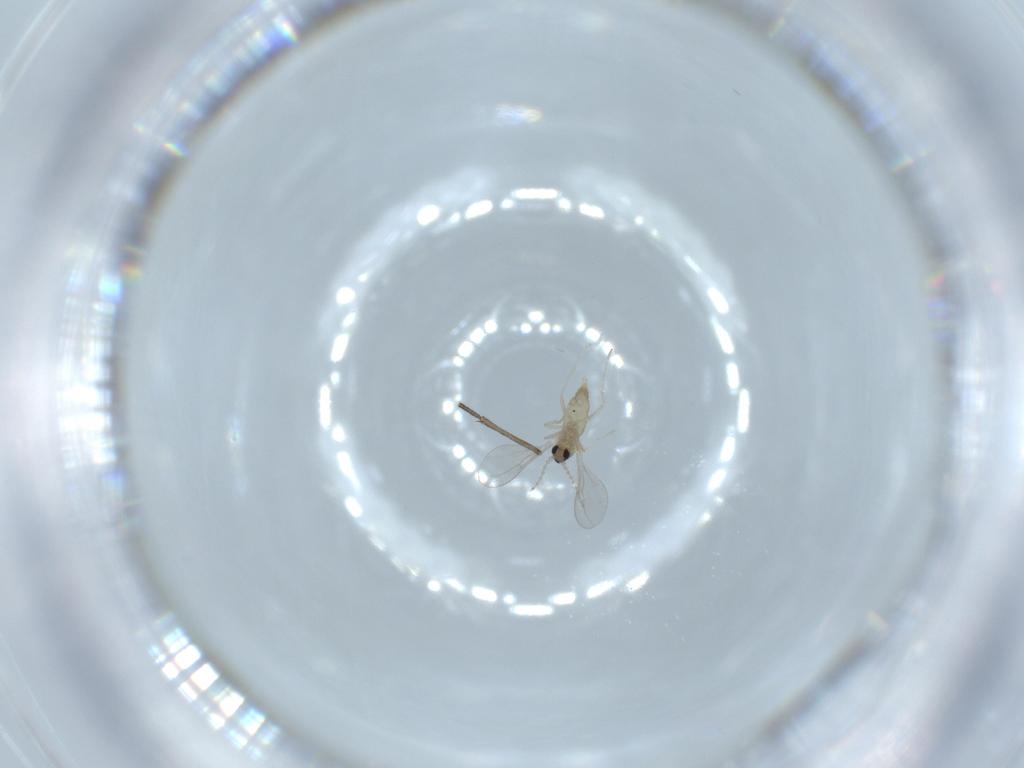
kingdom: Animalia
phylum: Arthropoda
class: Insecta
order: Diptera
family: Sciaridae
